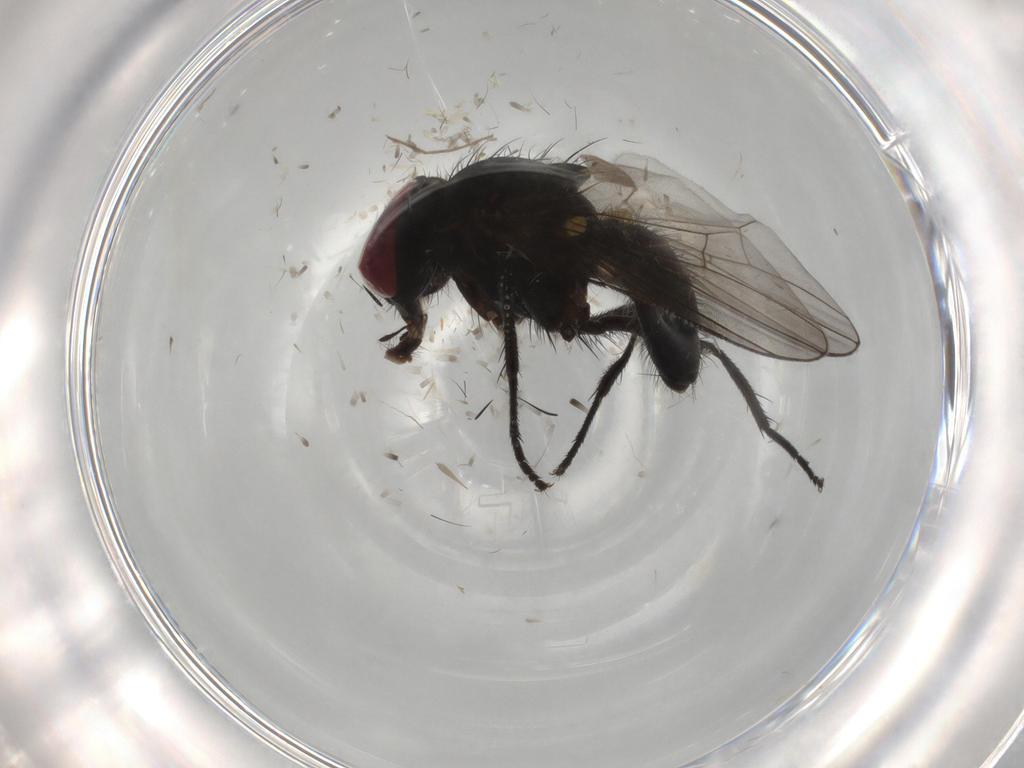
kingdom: Animalia
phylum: Arthropoda
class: Insecta
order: Diptera
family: Fannia
